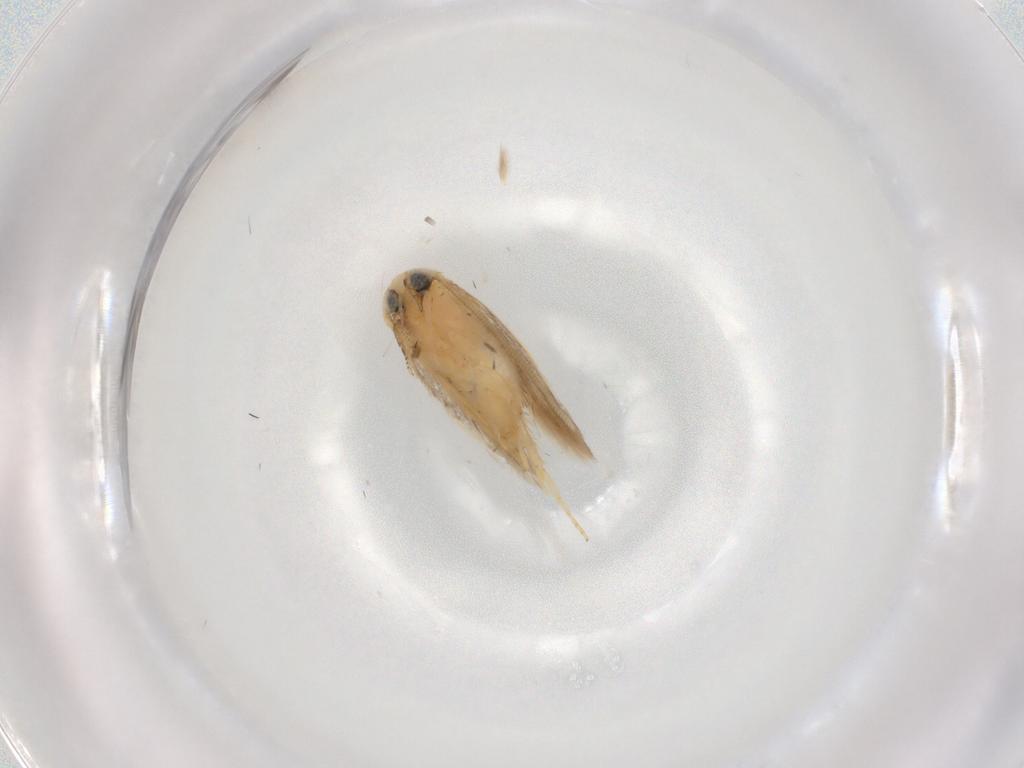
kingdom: Animalia
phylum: Arthropoda
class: Insecta
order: Lepidoptera
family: Opostegidae
